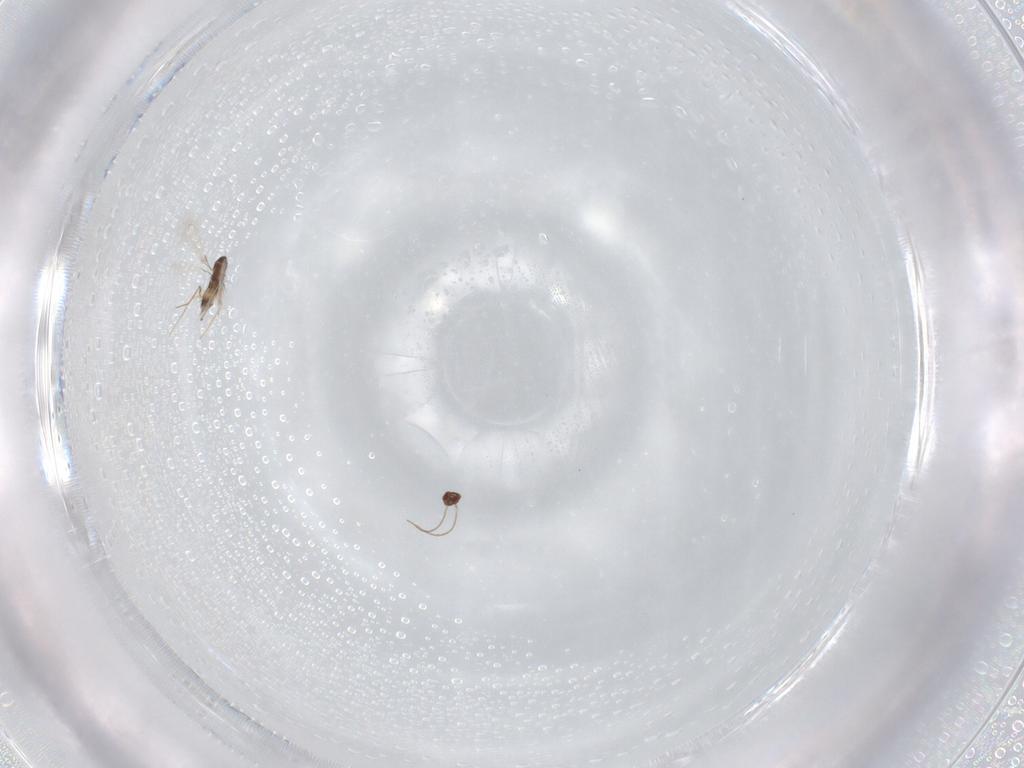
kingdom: Animalia
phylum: Arthropoda
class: Insecta
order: Hymenoptera
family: Mymaridae
